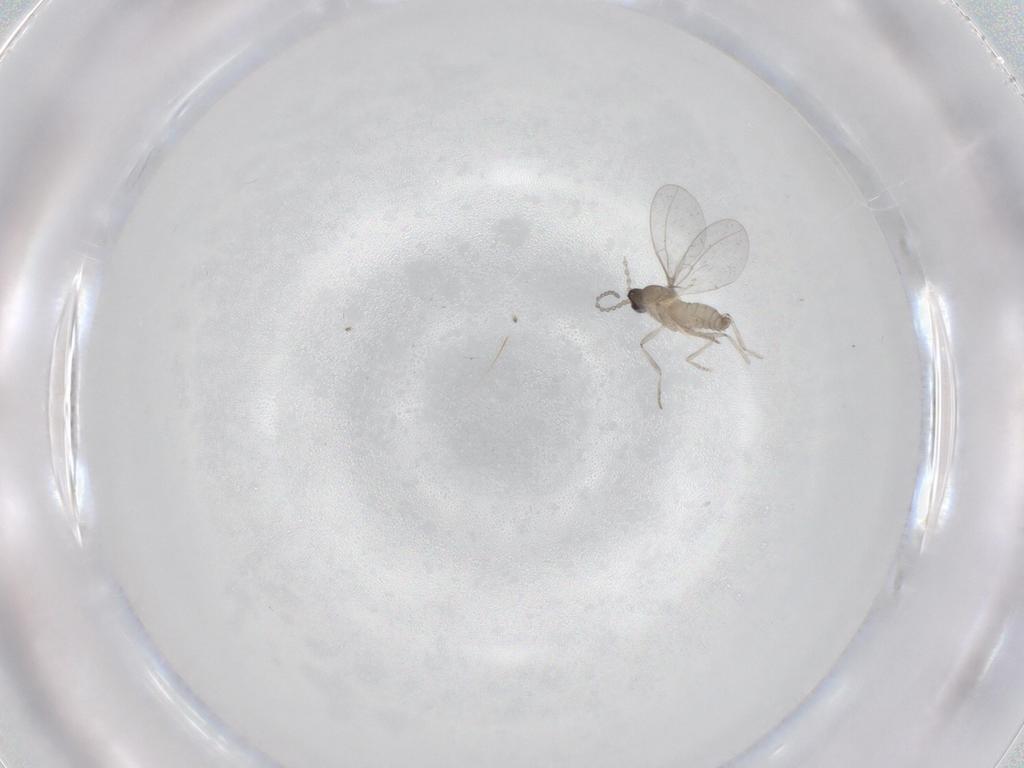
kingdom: Animalia
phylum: Arthropoda
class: Insecta
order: Diptera
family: Cecidomyiidae
